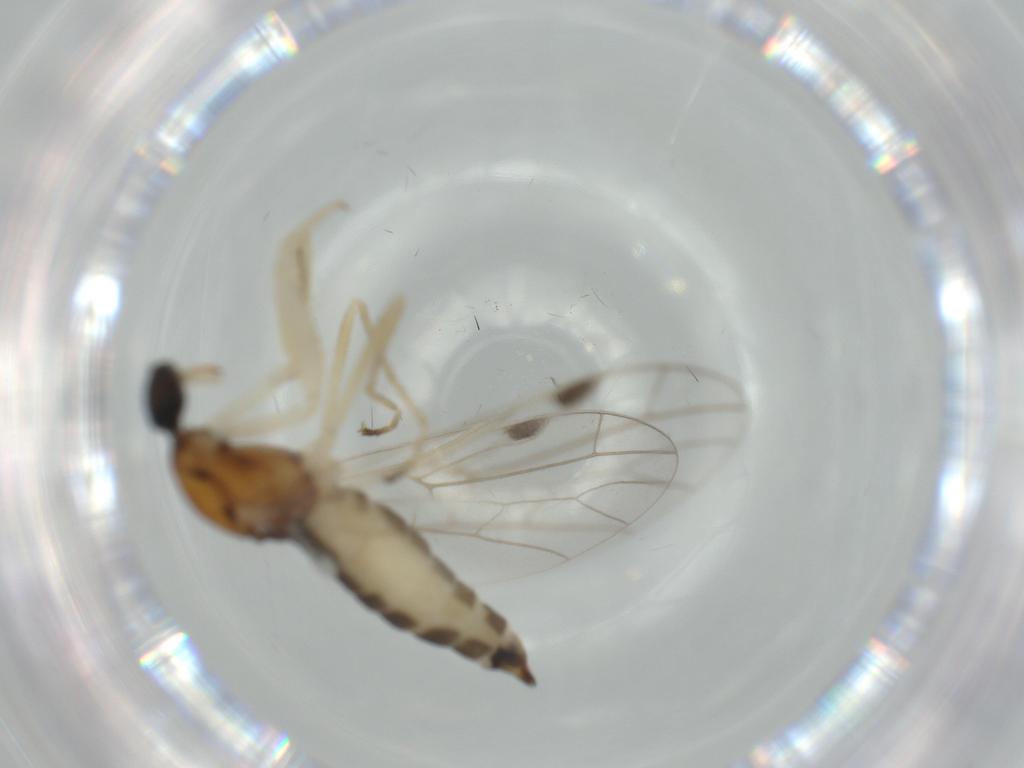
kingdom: Animalia
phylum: Arthropoda
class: Insecta
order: Diptera
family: Empididae
